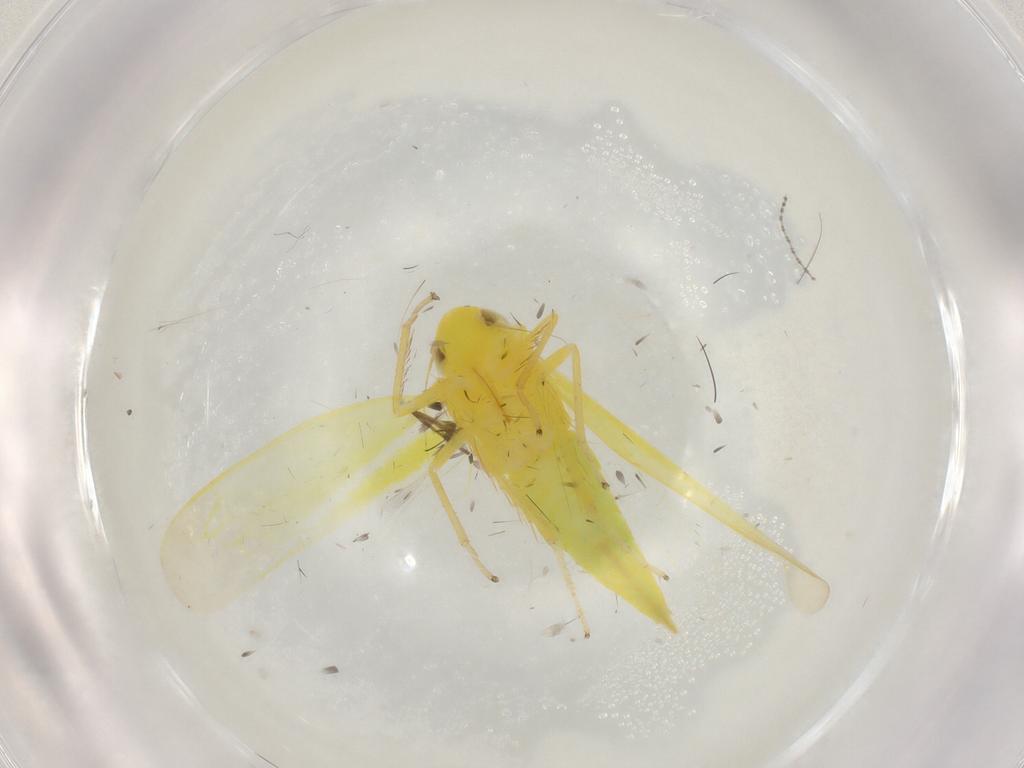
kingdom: Animalia
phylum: Arthropoda
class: Insecta
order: Hemiptera
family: Cicadellidae
